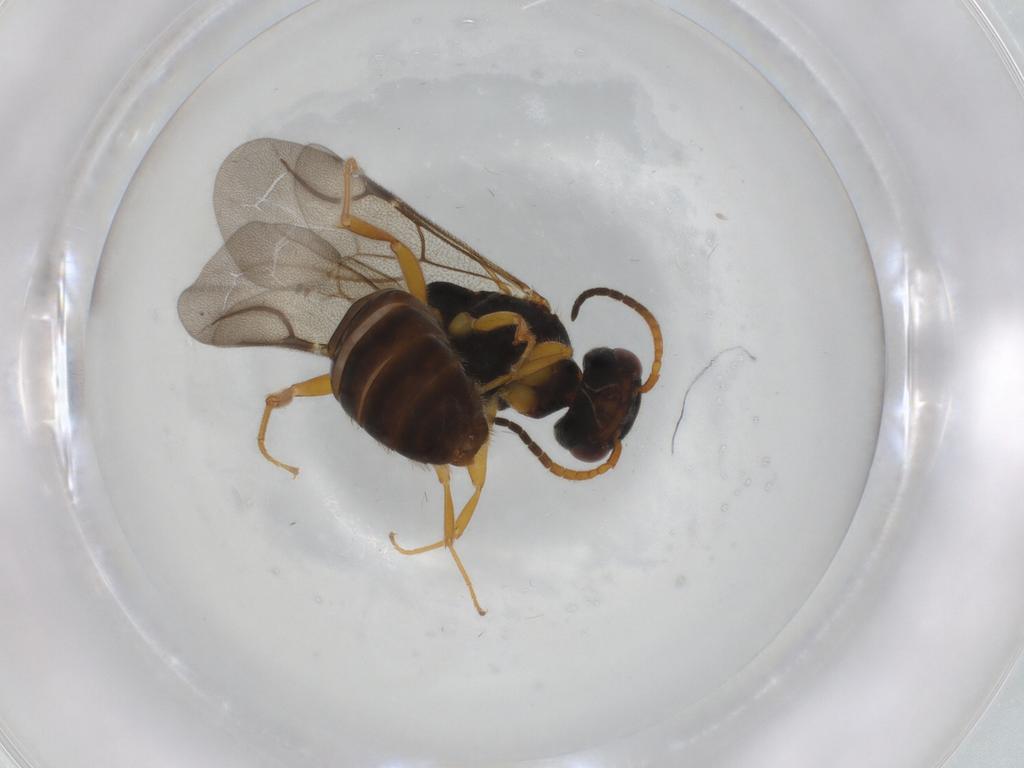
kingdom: Animalia
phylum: Arthropoda
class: Insecta
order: Hymenoptera
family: Bethylidae
